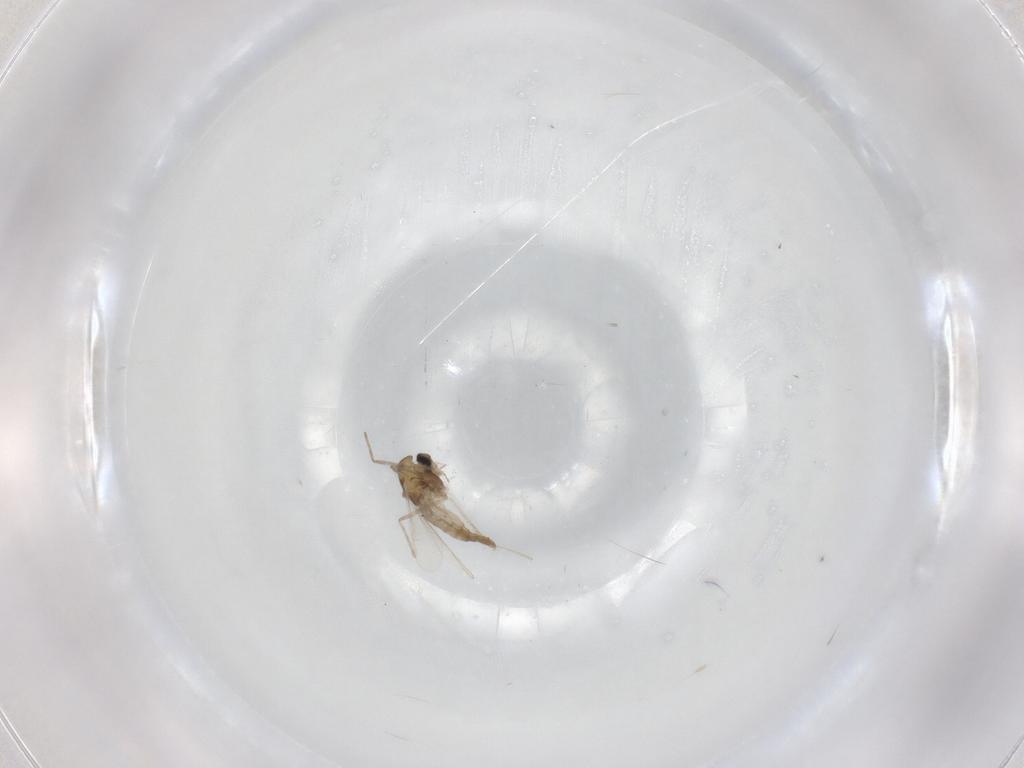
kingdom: Animalia
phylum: Arthropoda
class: Insecta
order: Diptera
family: Chironomidae
